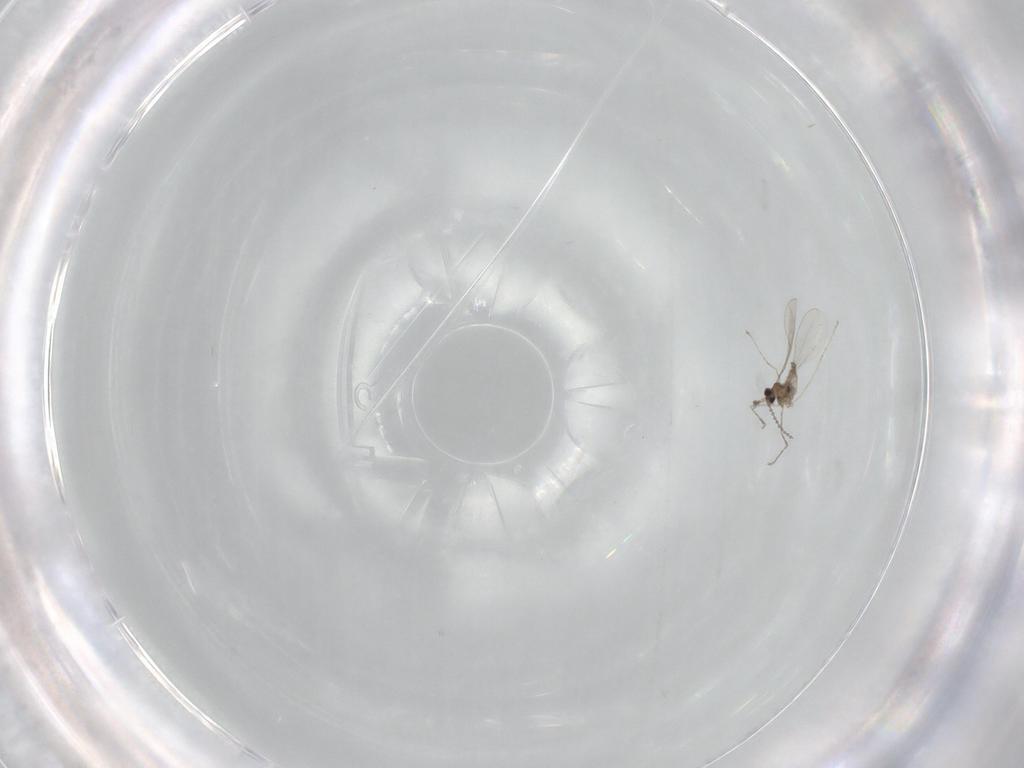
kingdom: Animalia
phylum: Arthropoda
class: Insecta
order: Diptera
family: Cecidomyiidae
